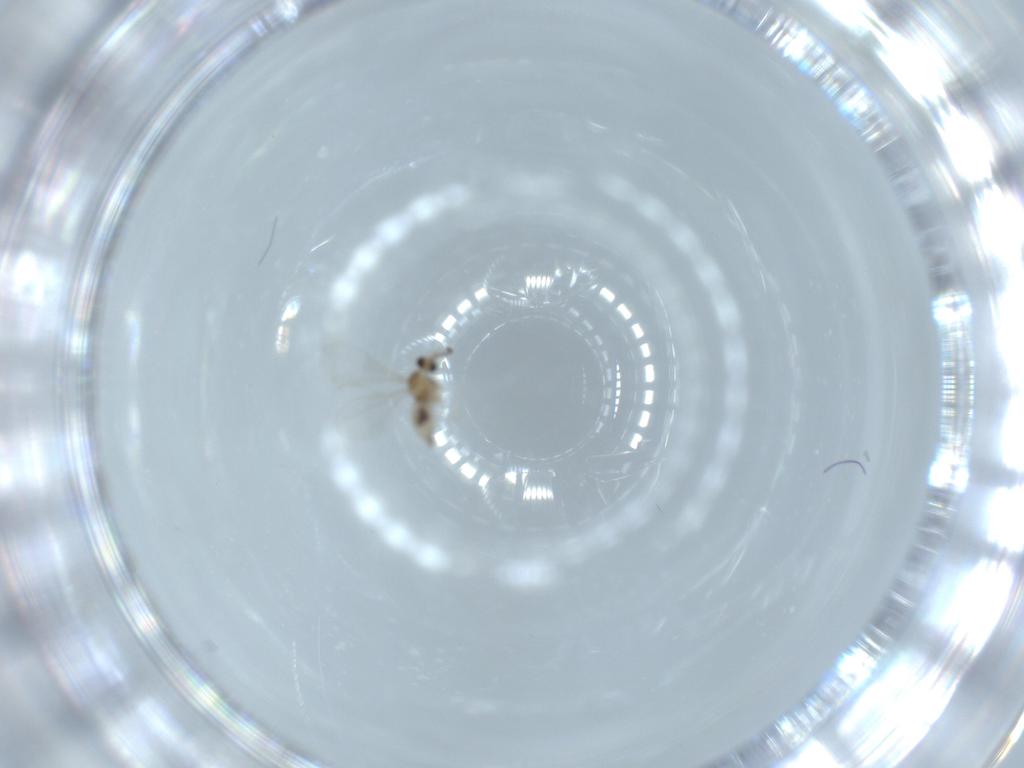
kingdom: Animalia
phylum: Arthropoda
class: Insecta
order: Diptera
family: Cecidomyiidae
